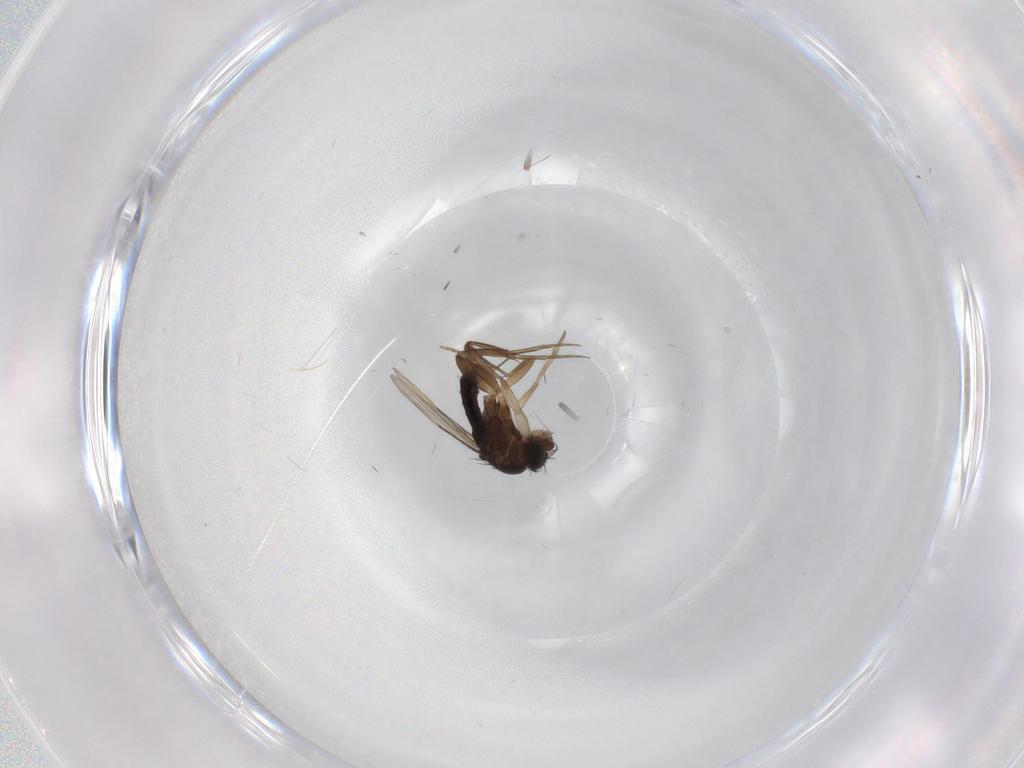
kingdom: Animalia
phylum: Arthropoda
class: Insecta
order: Diptera
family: Phoridae
